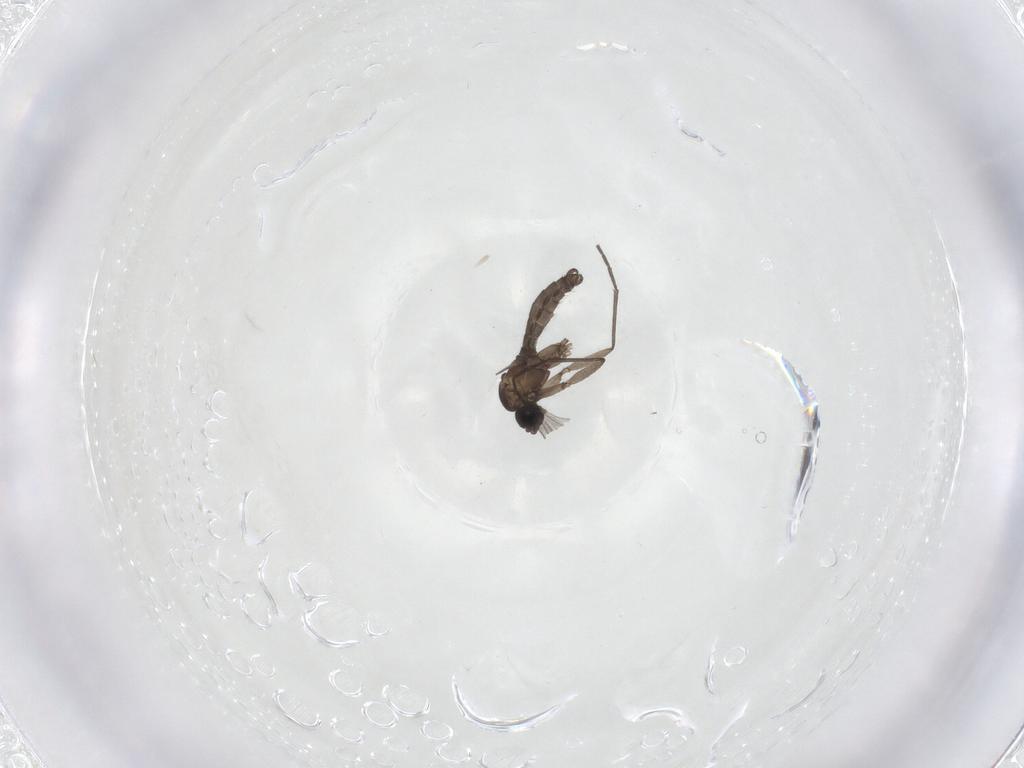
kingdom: Animalia
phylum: Arthropoda
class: Insecta
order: Diptera
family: Sciaridae
